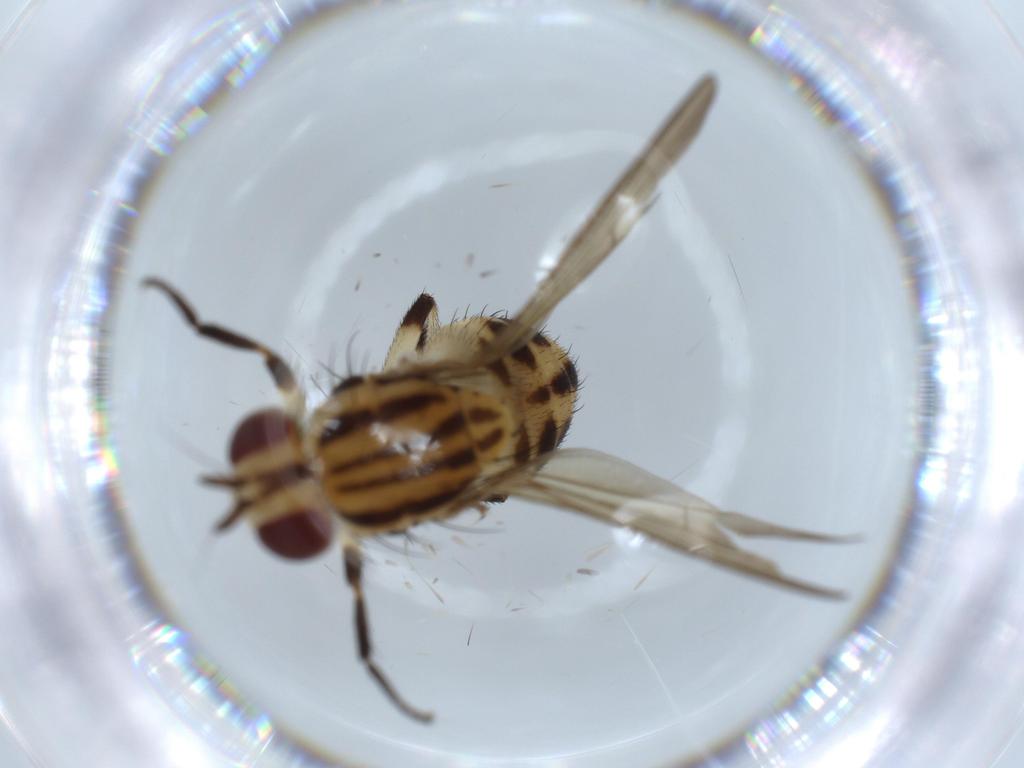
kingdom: Animalia
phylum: Arthropoda
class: Insecta
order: Diptera
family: Lauxaniidae
